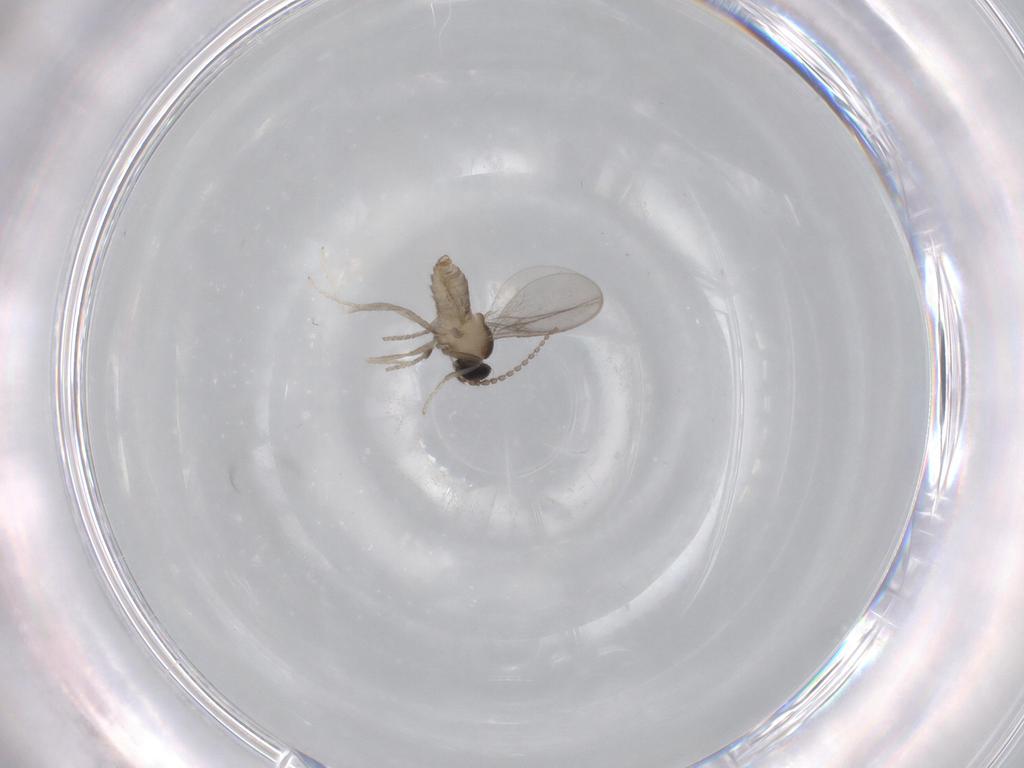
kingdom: Animalia
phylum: Arthropoda
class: Insecta
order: Diptera
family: Cecidomyiidae
